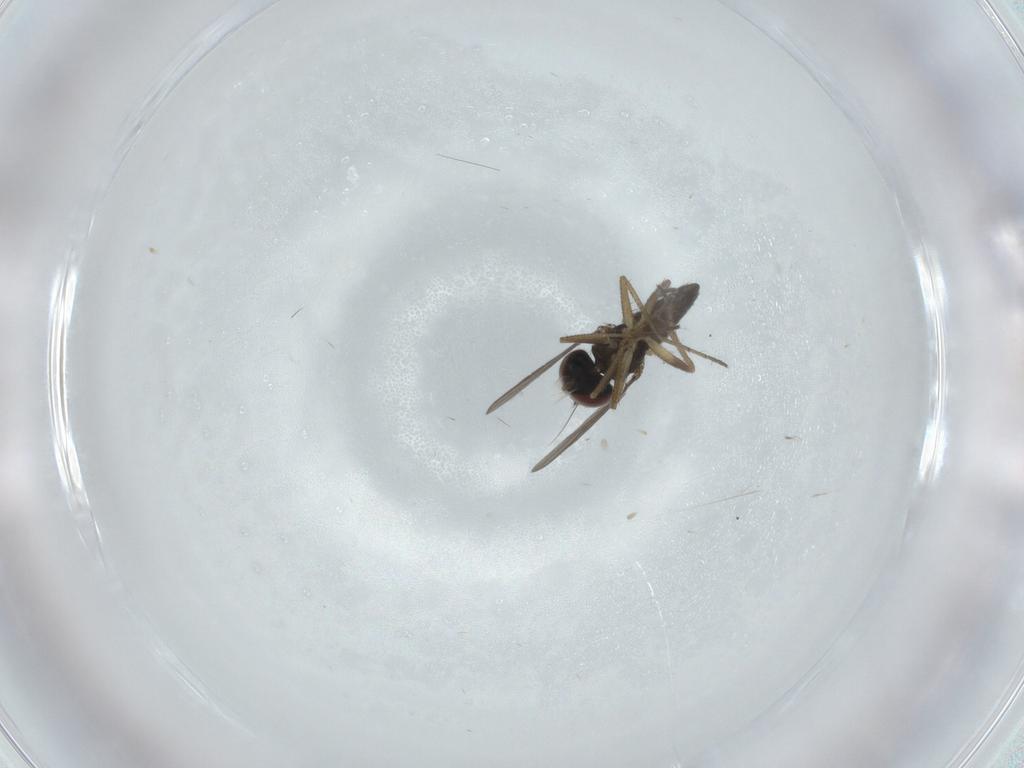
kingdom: Animalia
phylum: Arthropoda
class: Insecta
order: Diptera
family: Dolichopodidae
